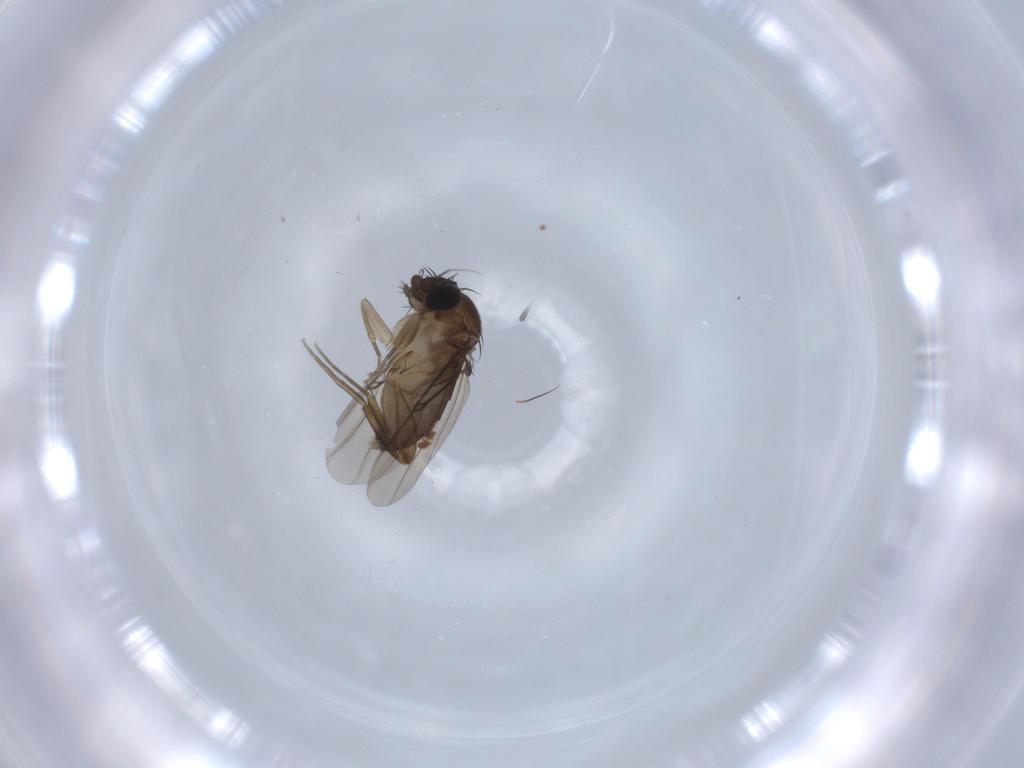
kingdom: Animalia
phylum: Arthropoda
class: Insecta
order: Diptera
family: Phoridae
